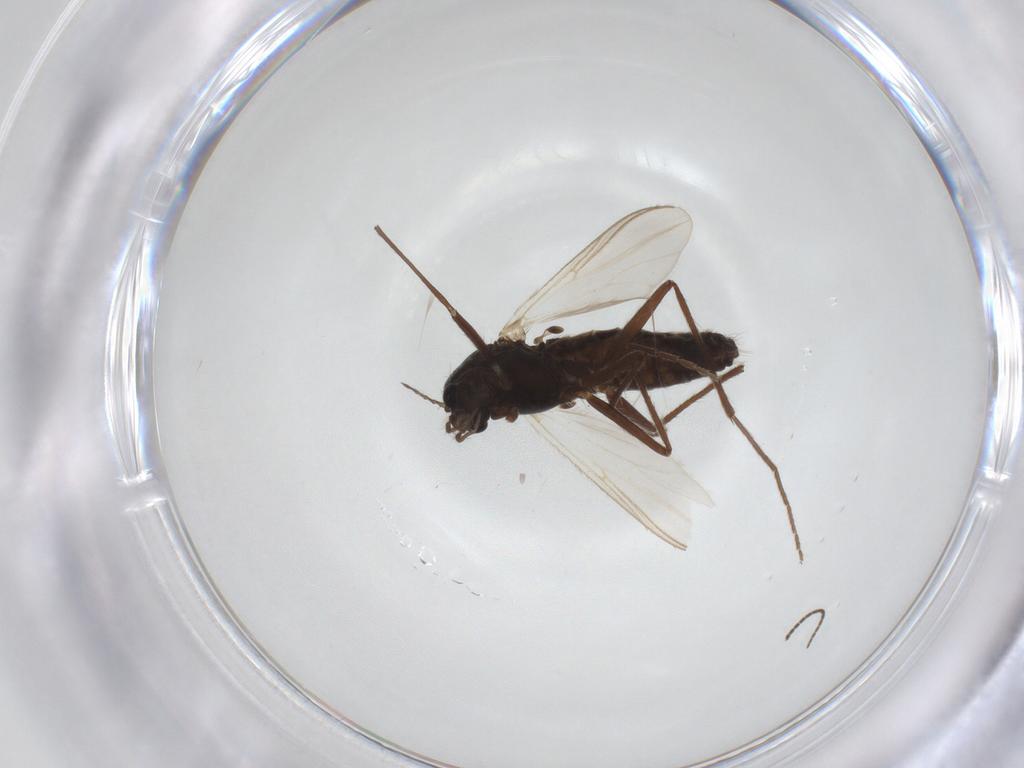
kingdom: Animalia
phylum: Arthropoda
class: Insecta
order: Diptera
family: Chironomidae
